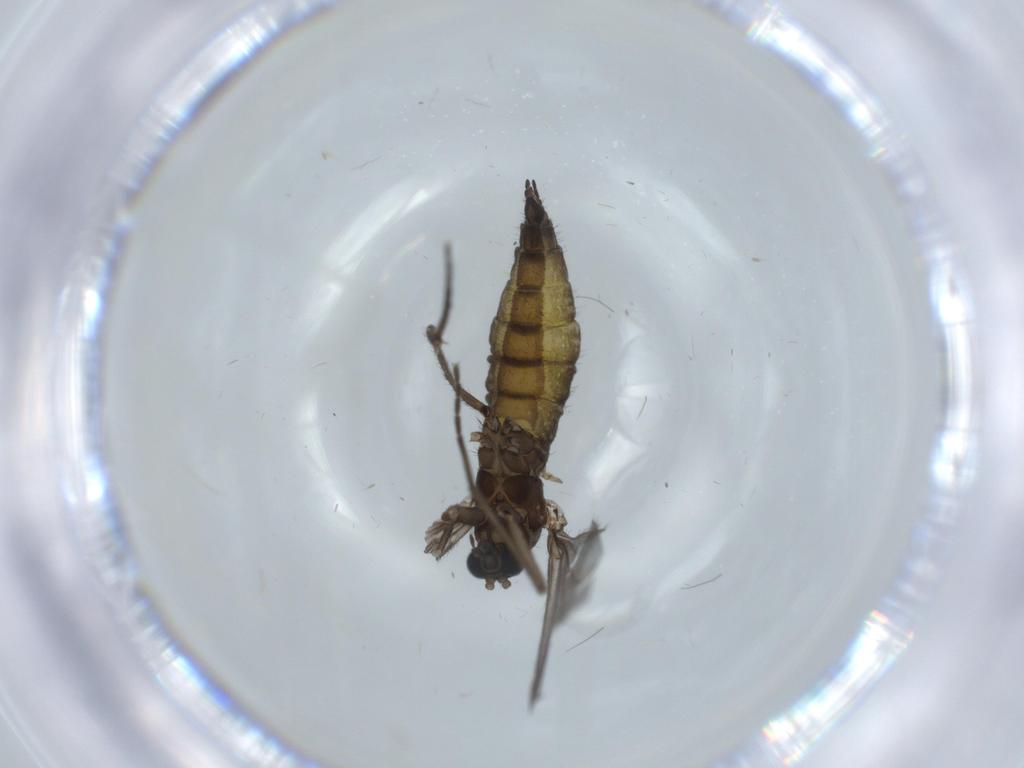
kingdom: Animalia
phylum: Arthropoda
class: Insecta
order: Diptera
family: Sciaridae
